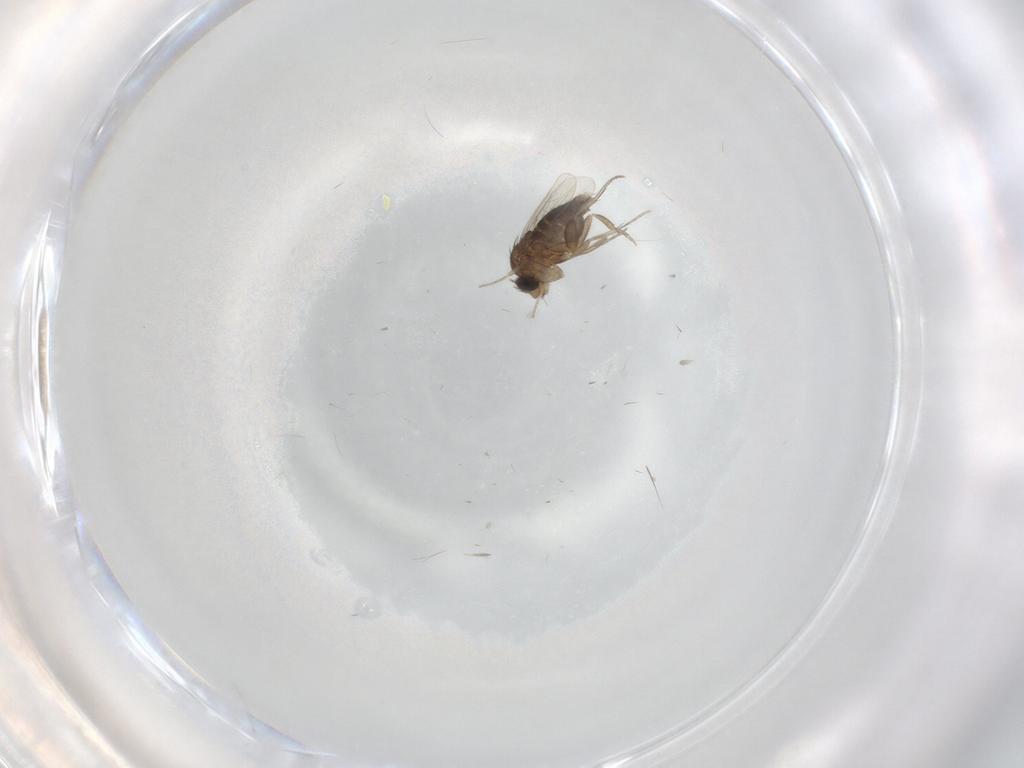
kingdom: Animalia
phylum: Arthropoda
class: Insecta
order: Diptera
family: Phoridae
